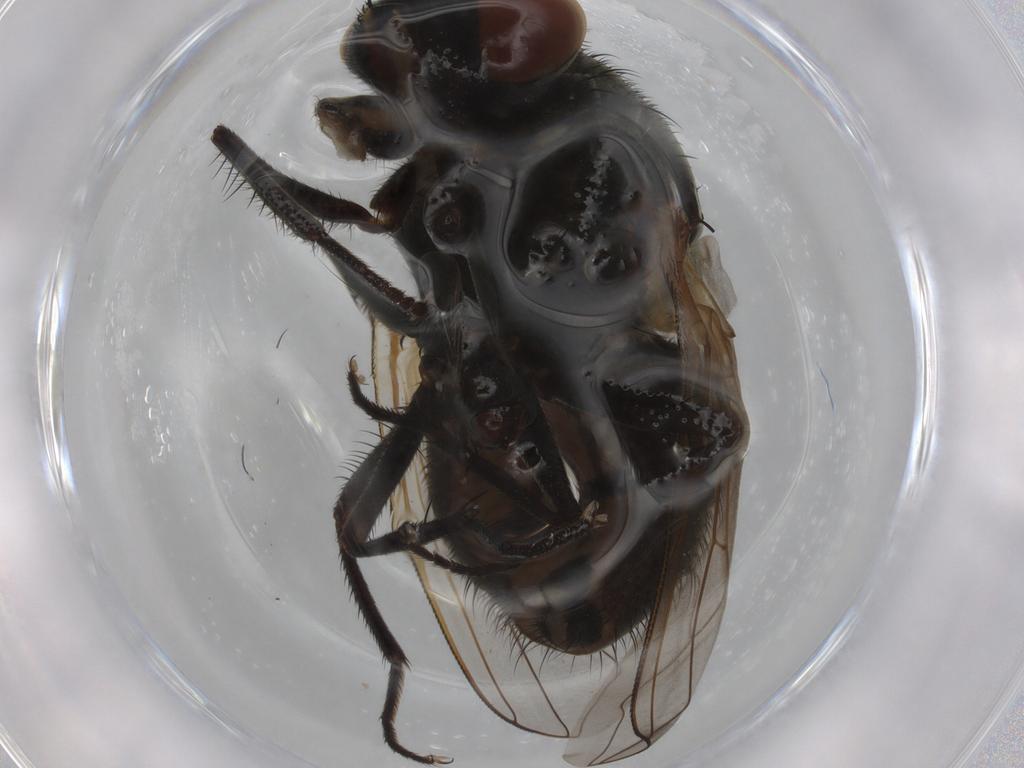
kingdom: Animalia
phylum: Arthropoda
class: Insecta
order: Diptera
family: Muscidae
